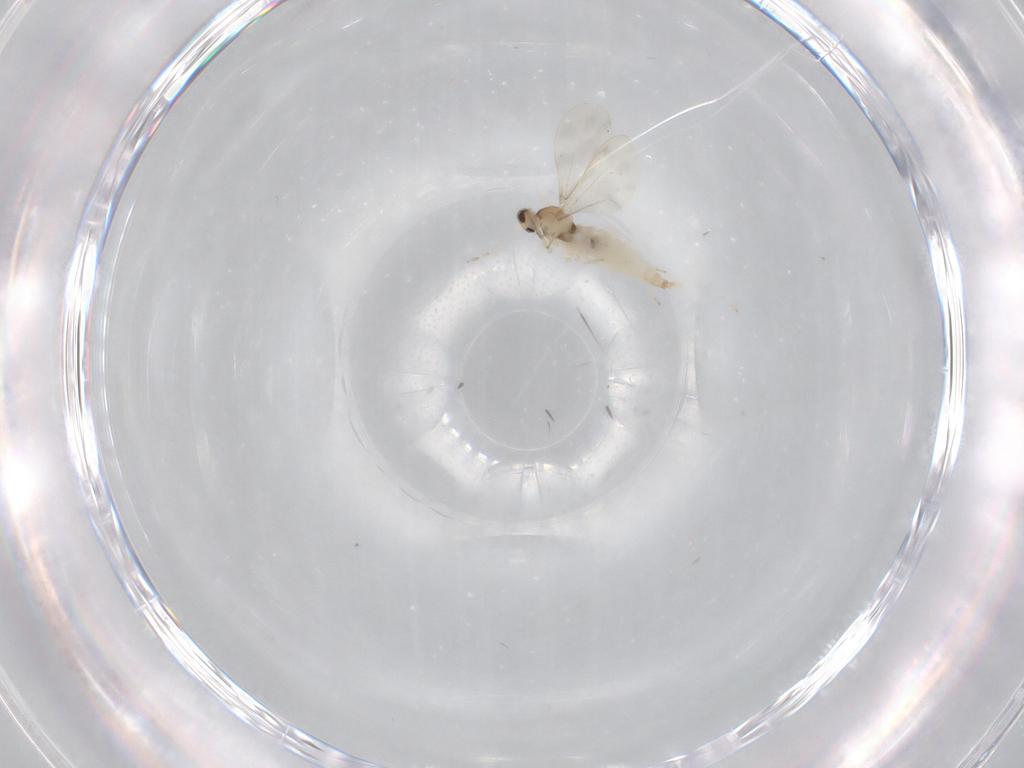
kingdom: Animalia
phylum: Arthropoda
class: Insecta
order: Diptera
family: Cecidomyiidae
